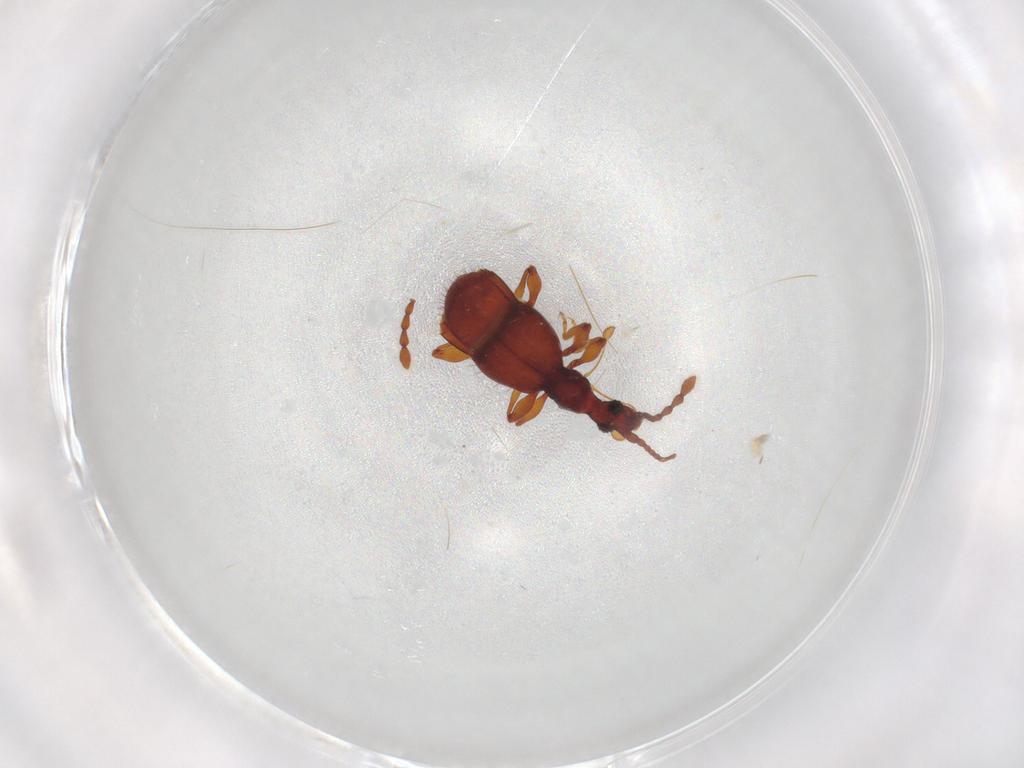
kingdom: Animalia
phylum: Arthropoda
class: Insecta
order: Coleoptera
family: Staphylinidae
